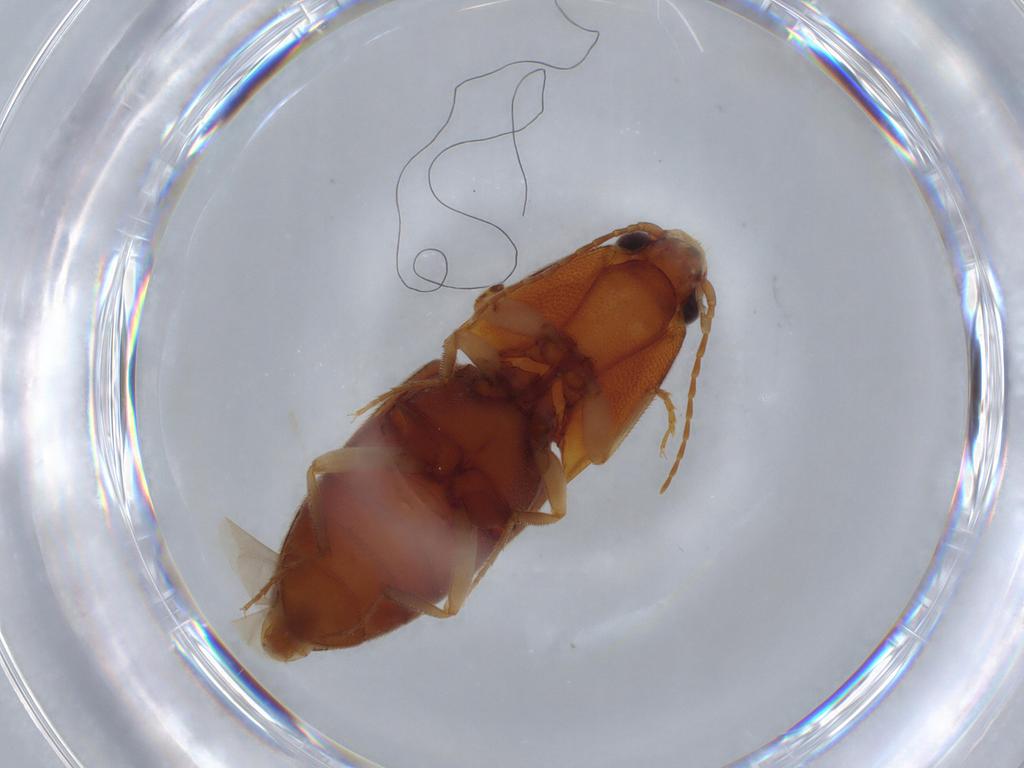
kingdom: Animalia
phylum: Arthropoda
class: Insecta
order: Coleoptera
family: Elateridae
